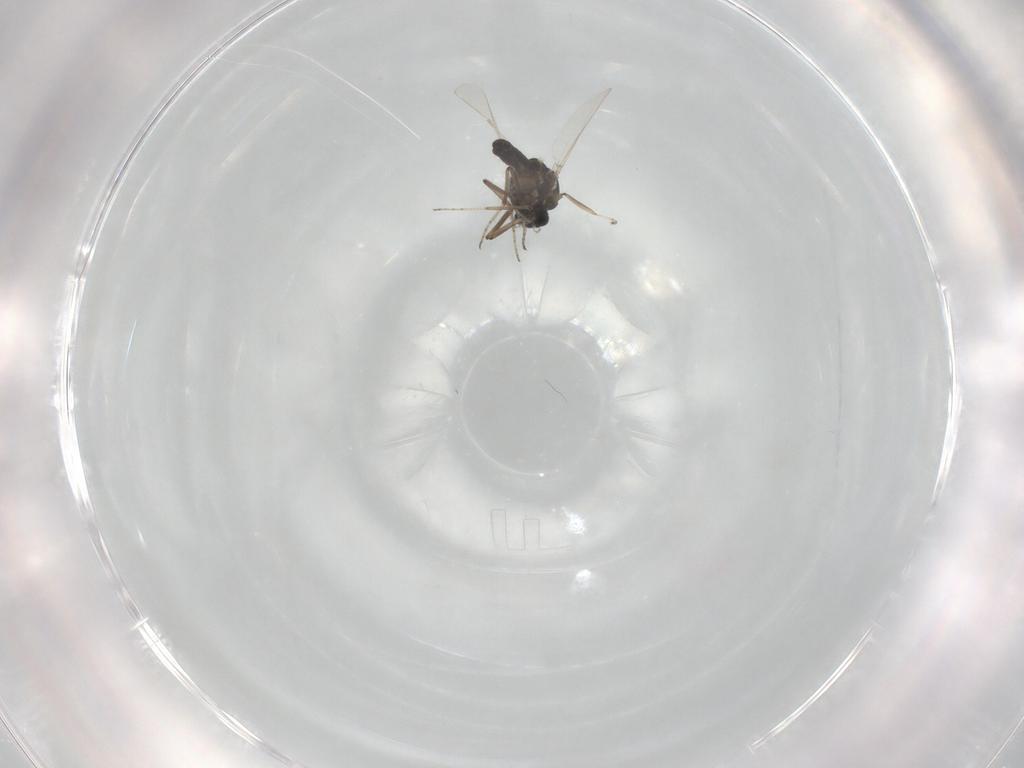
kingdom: Animalia
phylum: Arthropoda
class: Insecta
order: Diptera
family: Ceratopogonidae
